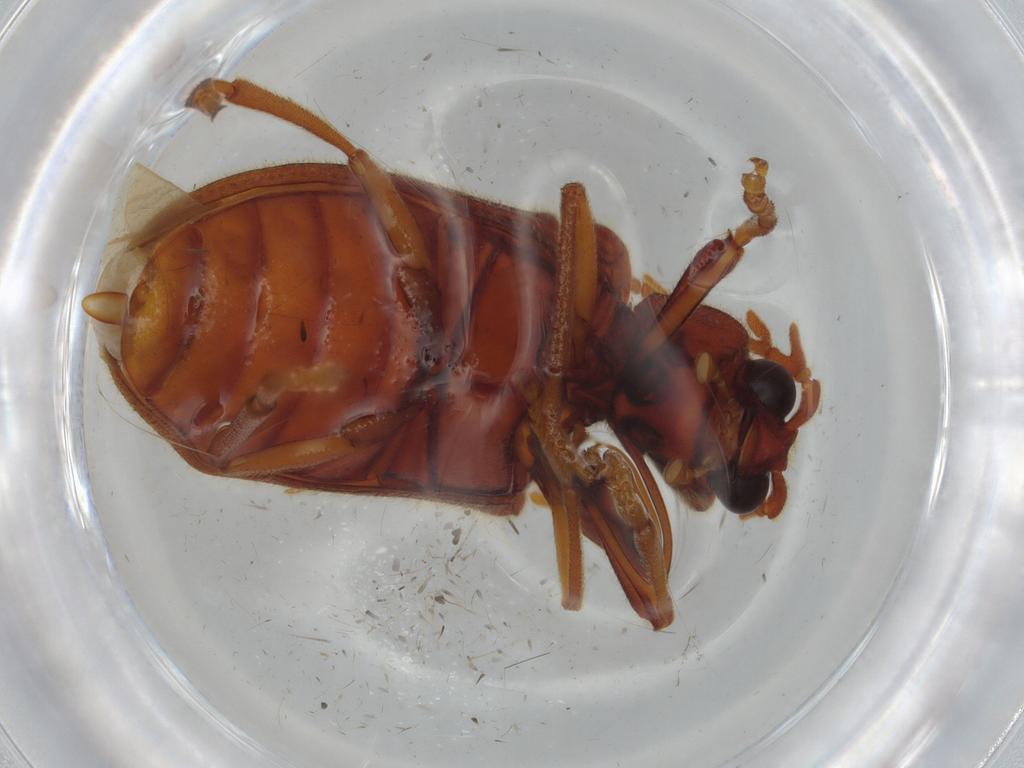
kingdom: Animalia
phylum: Arthropoda
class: Insecta
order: Coleoptera
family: Cerophytidae
